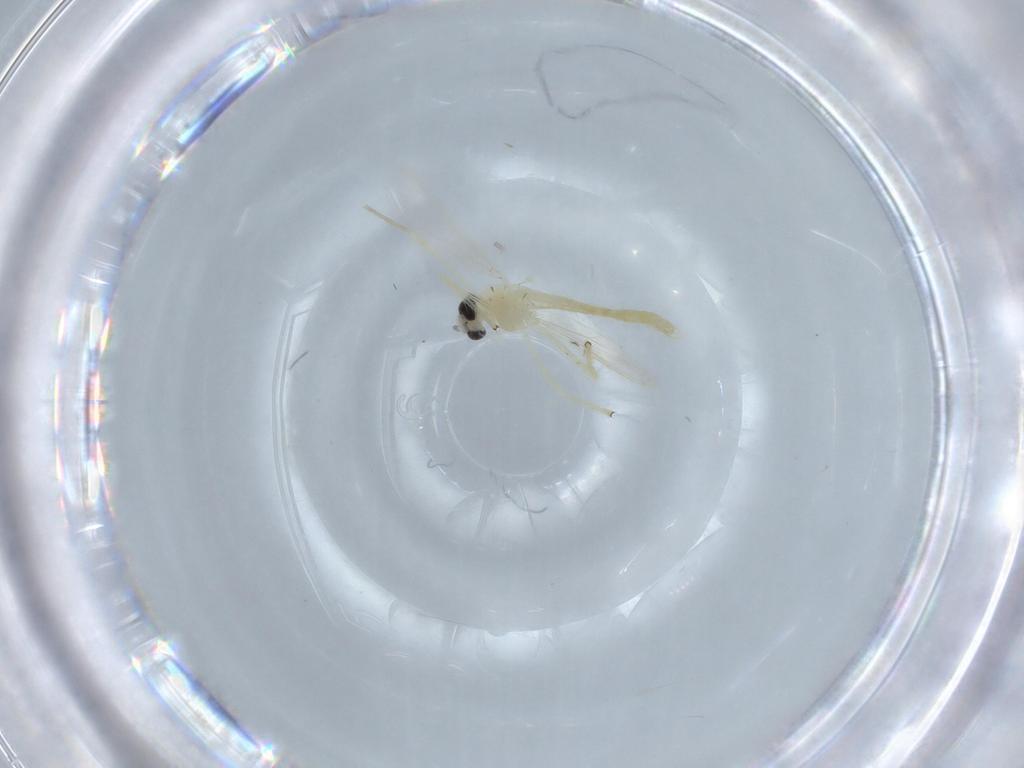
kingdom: Animalia
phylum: Arthropoda
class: Insecta
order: Diptera
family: Chironomidae
